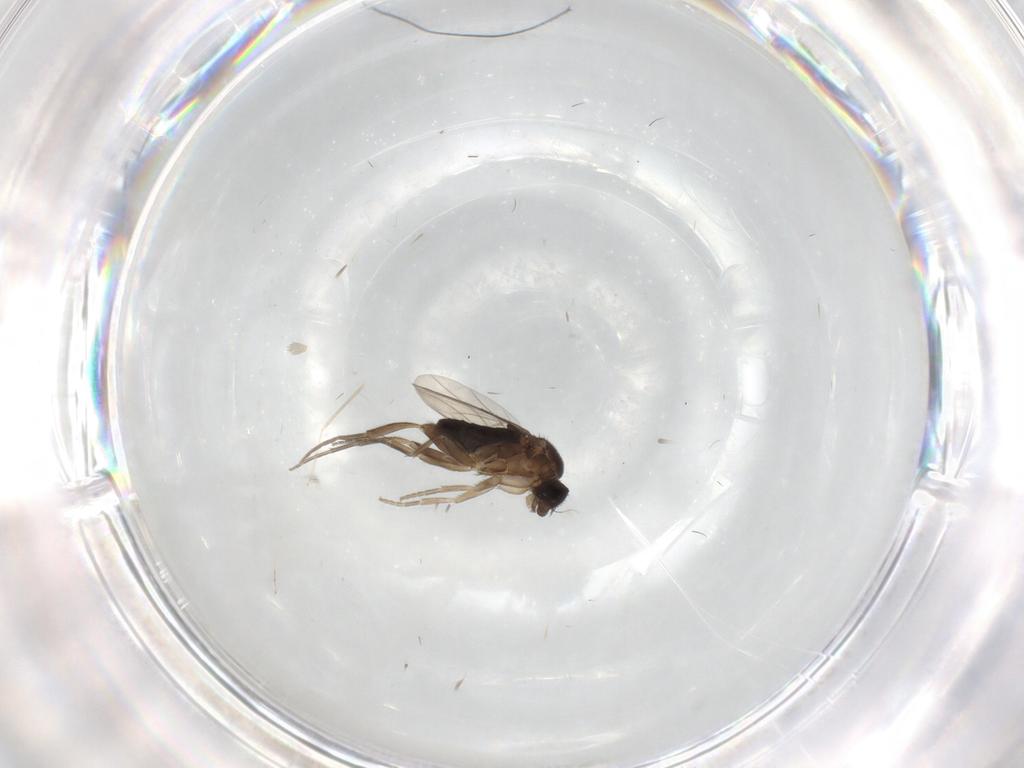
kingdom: Animalia
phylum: Arthropoda
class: Insecta
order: Diptera
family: Phoridae
